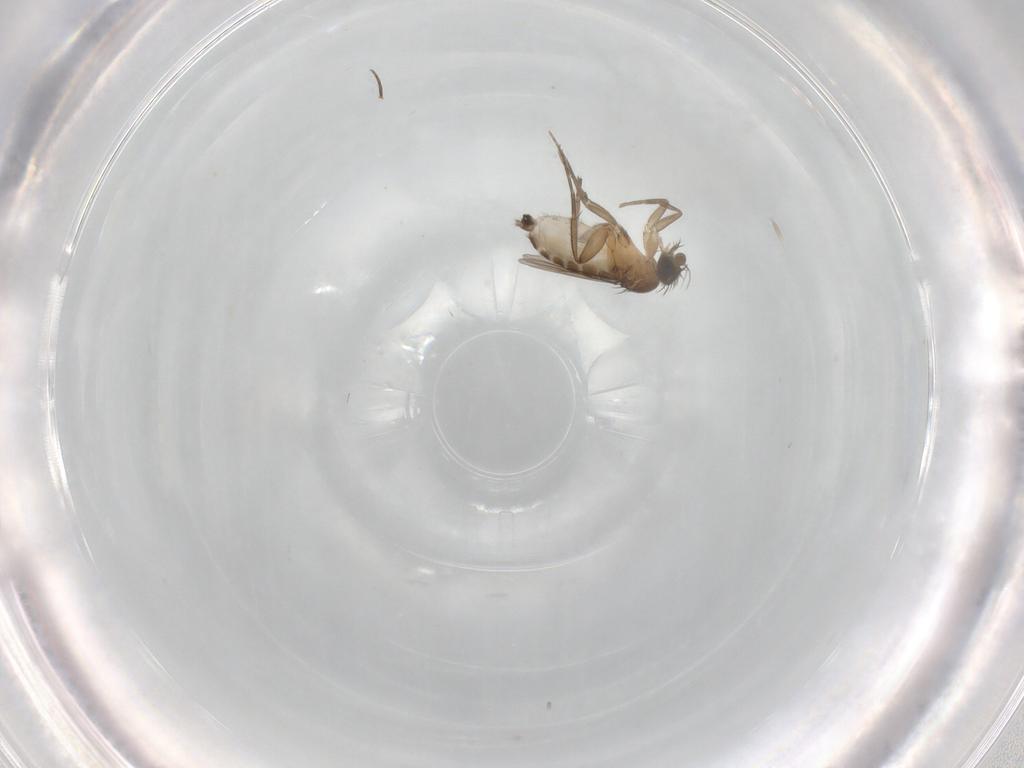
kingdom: Animalia
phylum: Arthropoda
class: Insecta
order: Diptera
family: Phoridae
